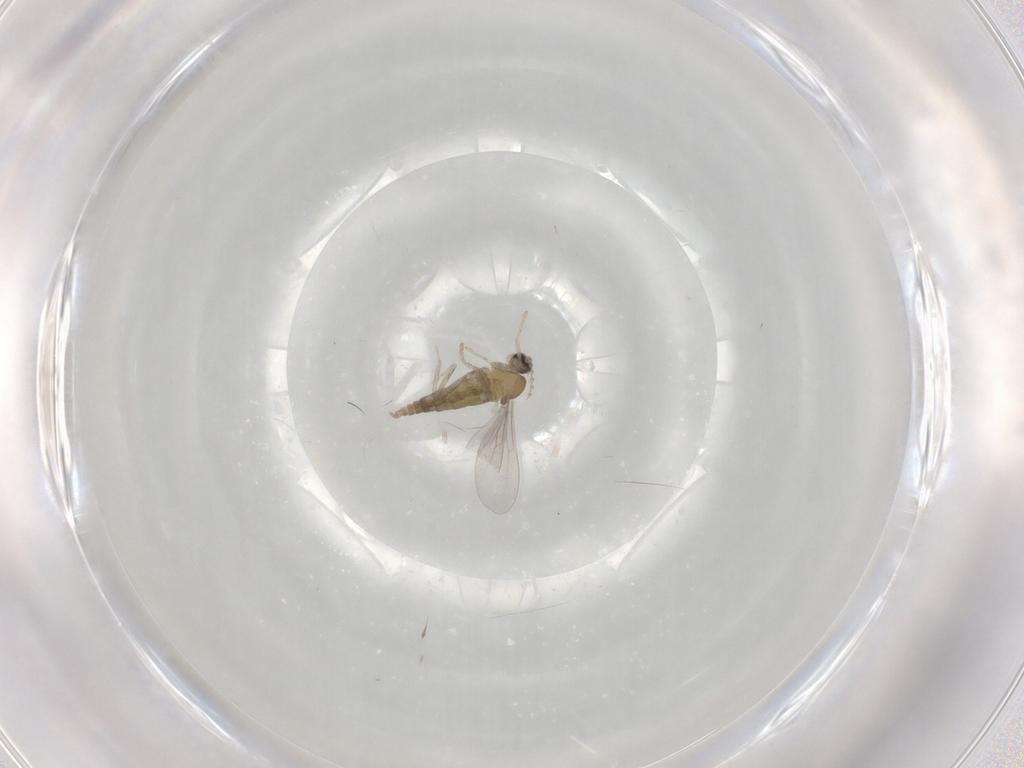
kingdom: Animalia
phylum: Arthropoda
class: Insecta
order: Diptera
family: Cecidomyiidae
